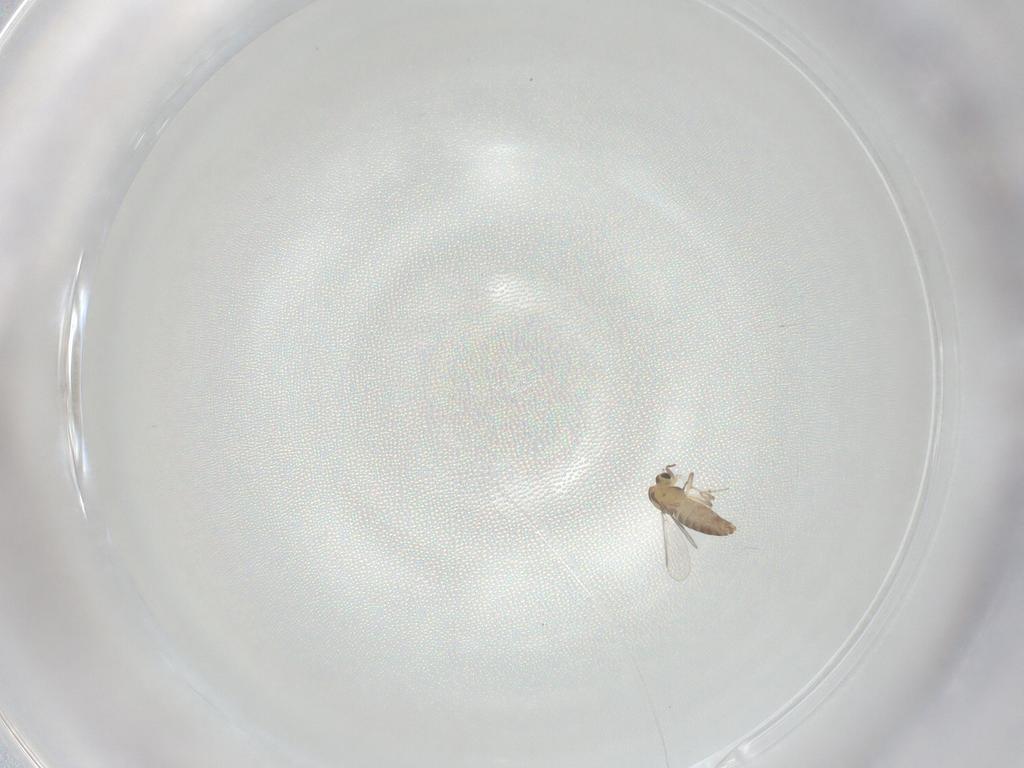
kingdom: Animalia
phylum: Arthropoda
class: Insecta
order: Diptera
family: Chironomidae
